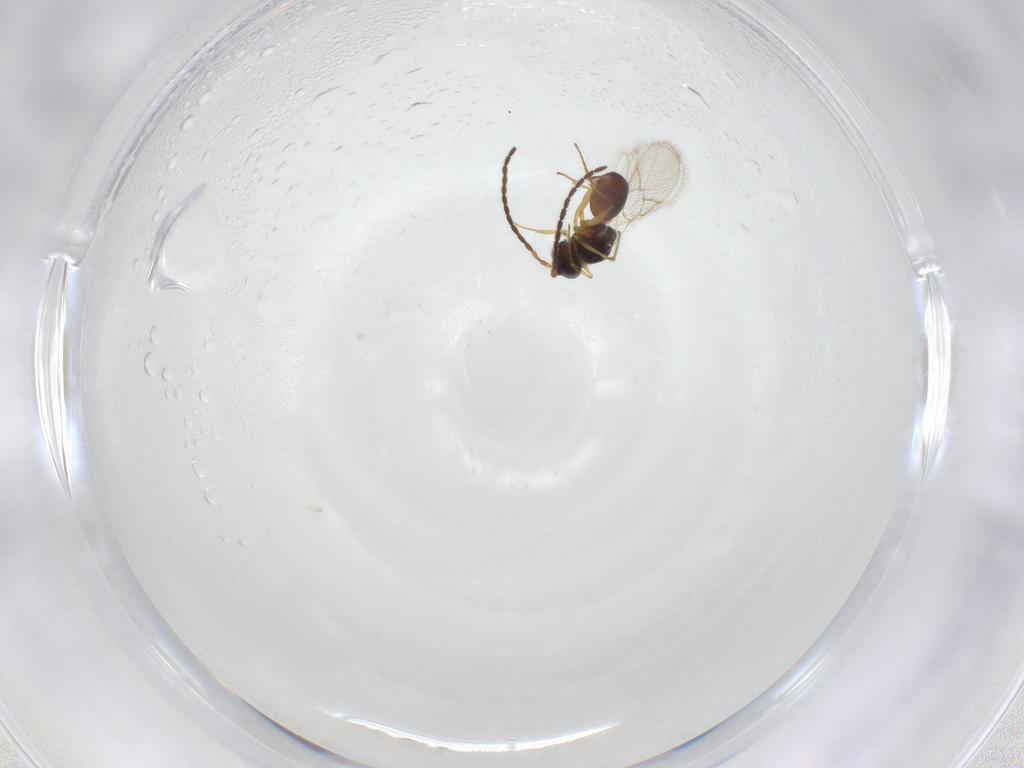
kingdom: Animalia
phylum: Arthropoda
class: Insecta
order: Hymenoptera
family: Figitidae
